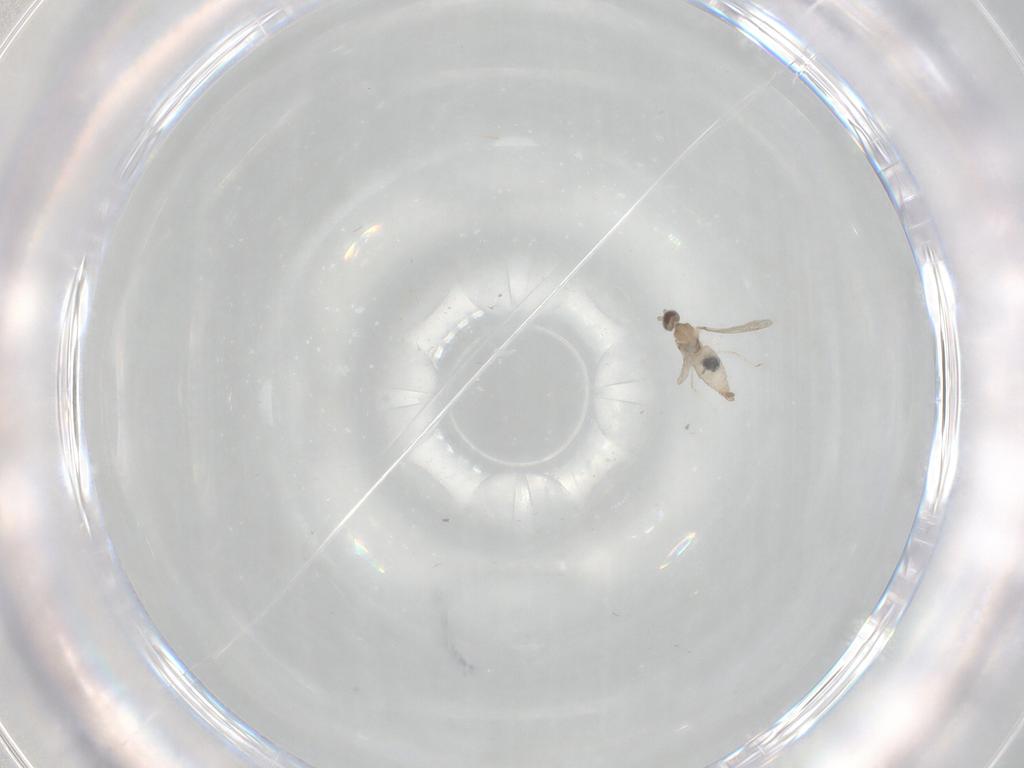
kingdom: Animalia
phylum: Arthropoda
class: Insecta
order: Diptera
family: Cecidomyiidae
